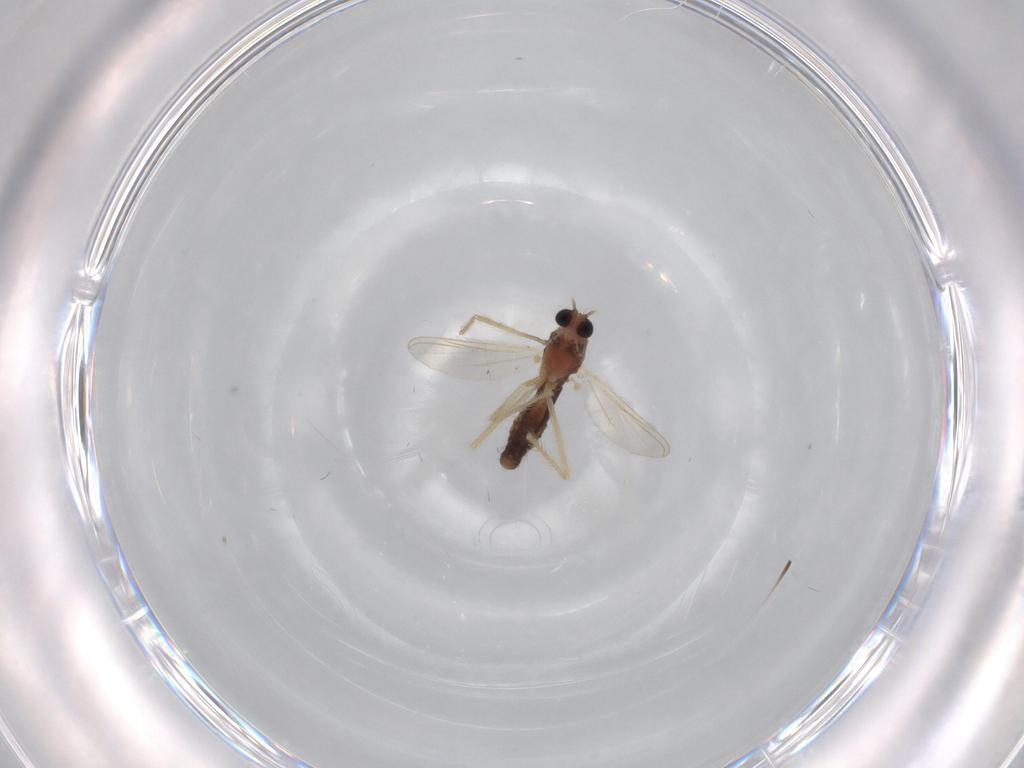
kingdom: Animalia
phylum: Arthropoda
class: Insecta
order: Diptera
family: Chironomidae
